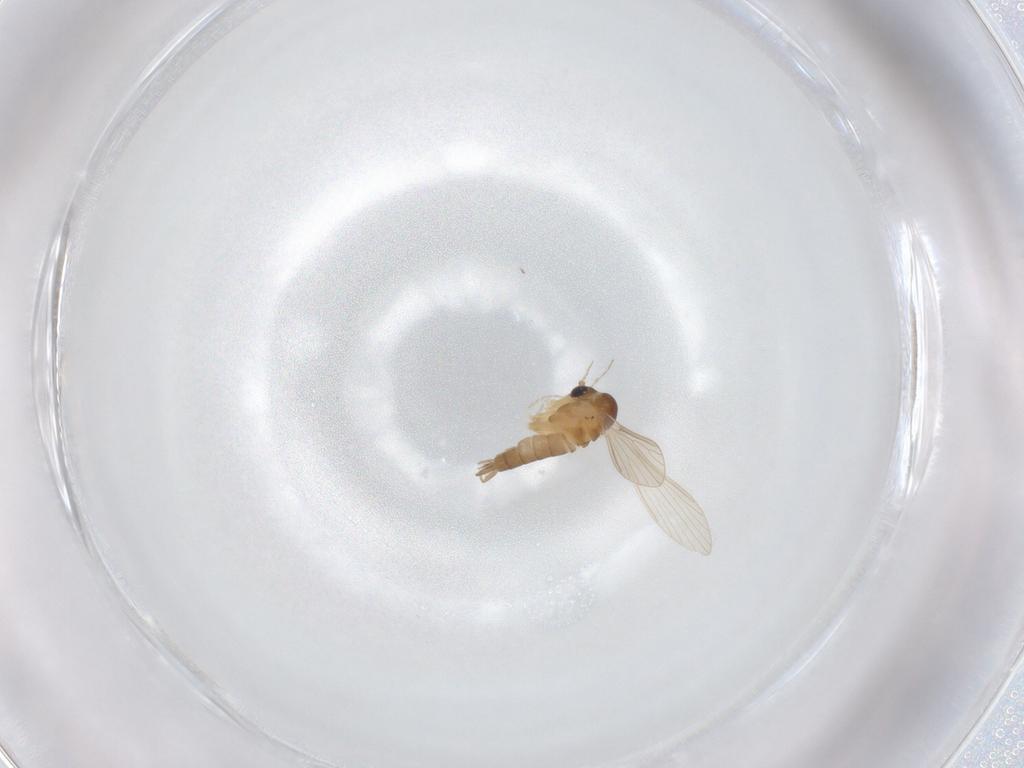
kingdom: Animalia
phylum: Arthropoda
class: Insecta
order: Diptera
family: Psychodidae
